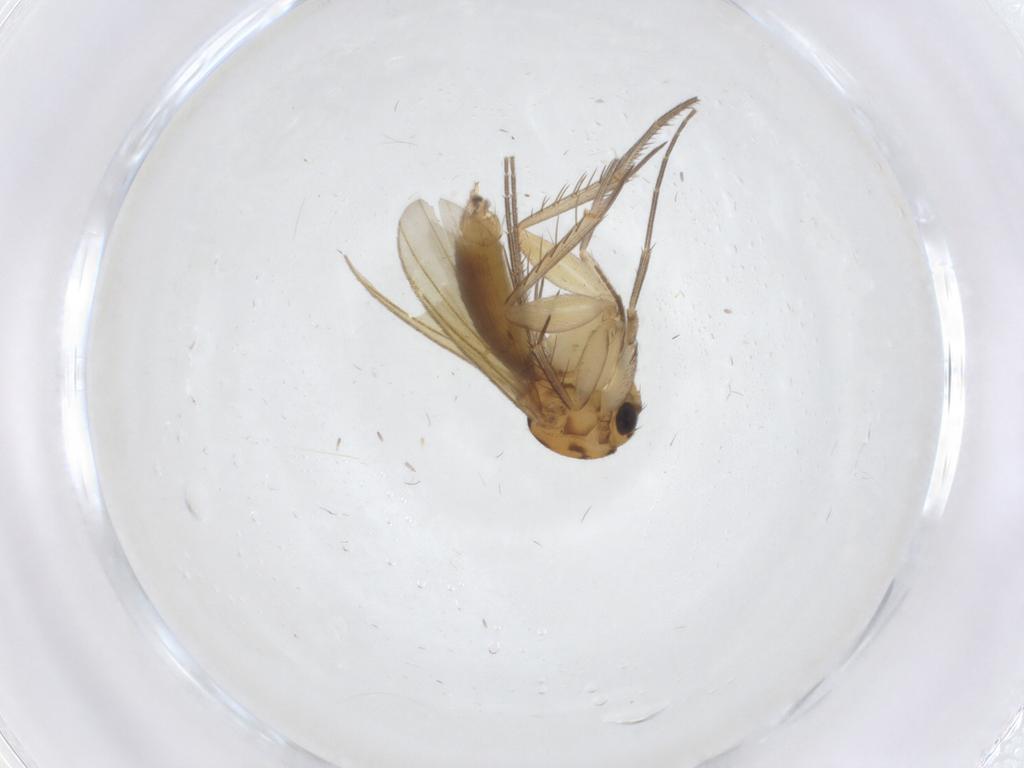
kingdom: Animalia
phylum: Arthropoda
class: Insecta
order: Diptera
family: Mycetophilidae
